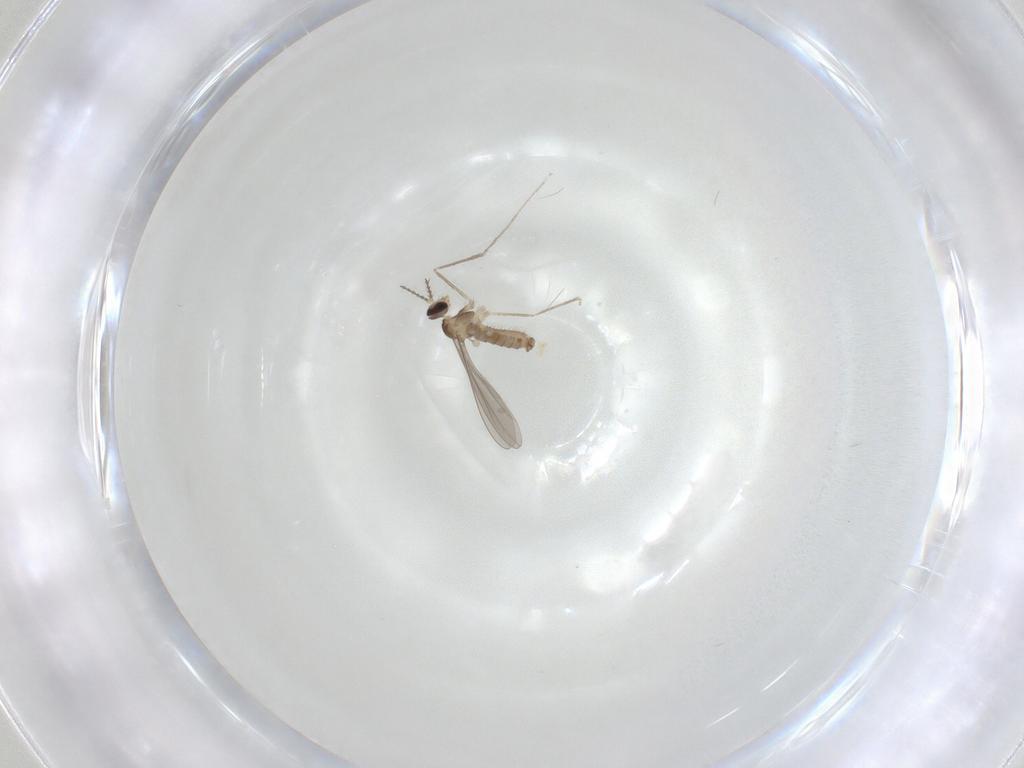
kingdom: Animalia
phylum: Arthropoda
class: Insecta
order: Diptera
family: Cecidomyiidae
